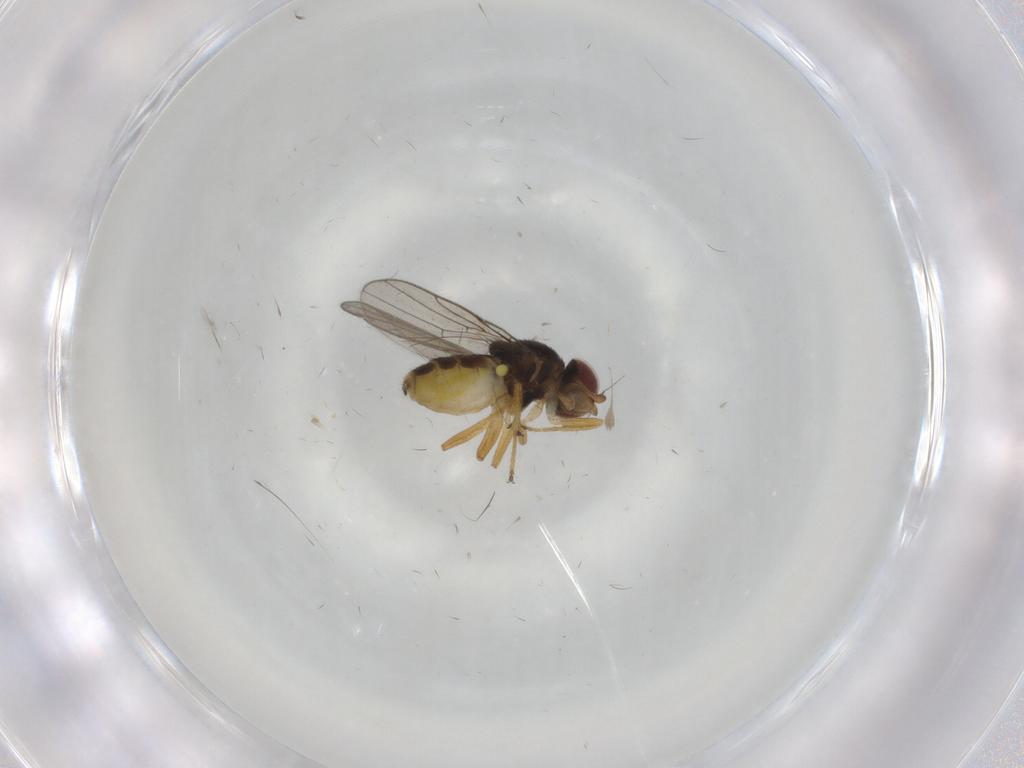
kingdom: Animalia
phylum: Arthropoda
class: Insecta
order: Diptera
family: Chloropidae
